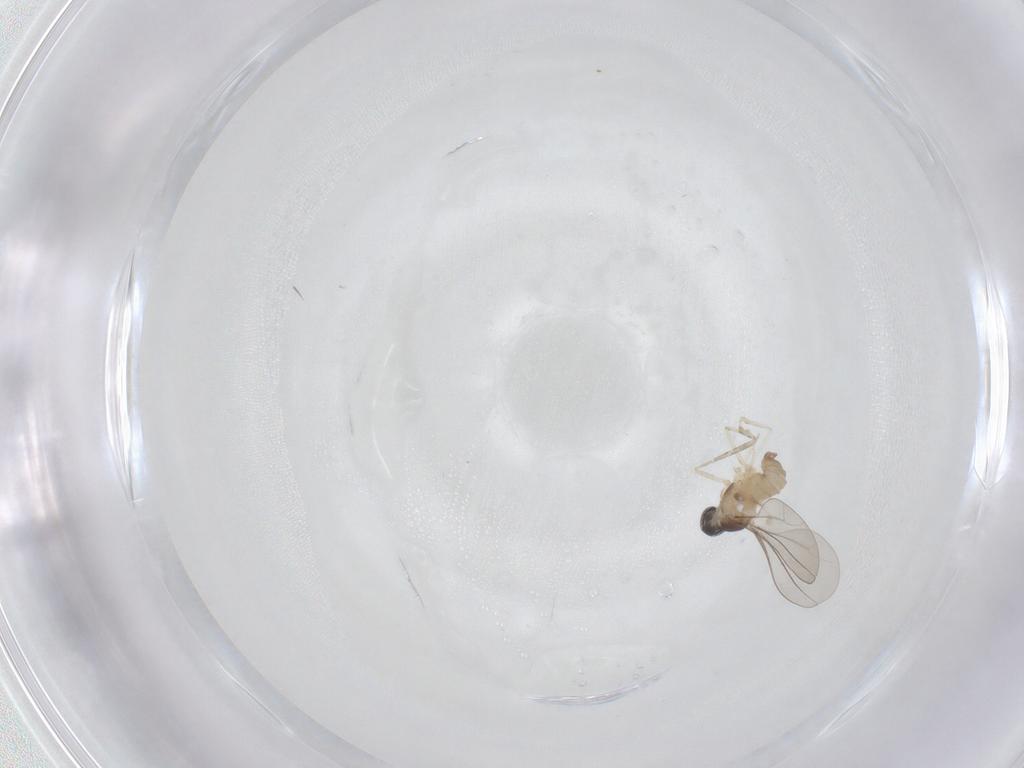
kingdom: Animalia
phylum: Arthropoda
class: Insecta
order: Diptera
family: Cecidomyiidae
